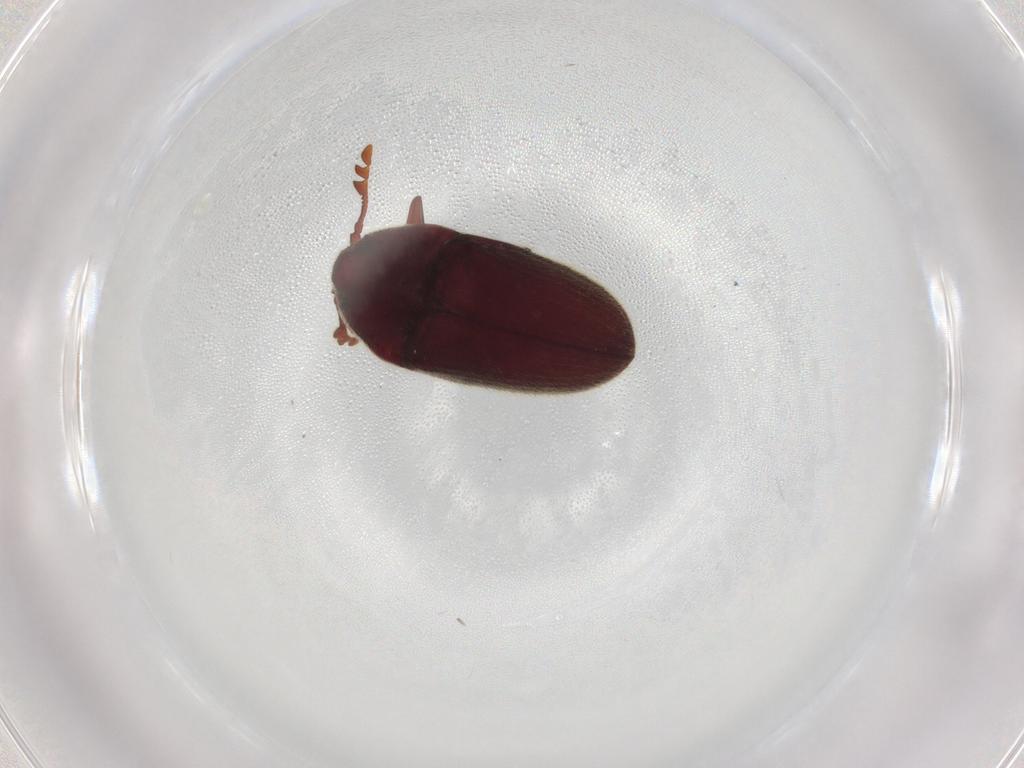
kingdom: Animalia
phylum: Arthropoda
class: Insecta
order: Coleoptera
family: Throscidae
